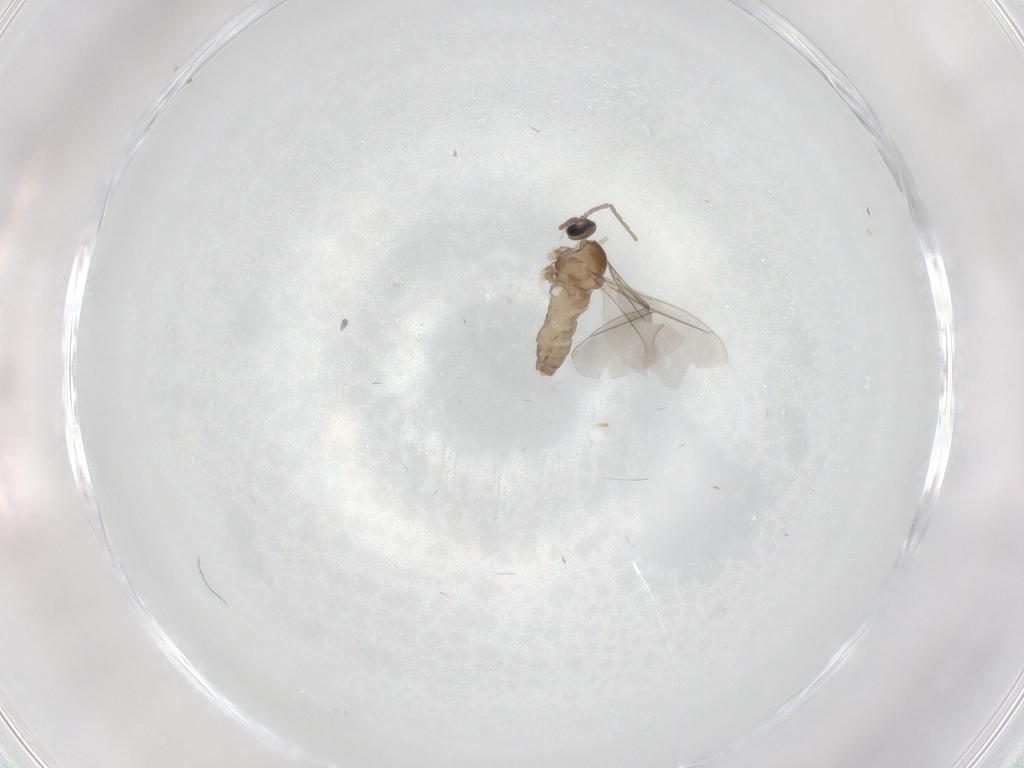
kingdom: Animalia
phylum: Arthropoda
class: Insecta
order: Diptera
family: Cecidomyiidae
